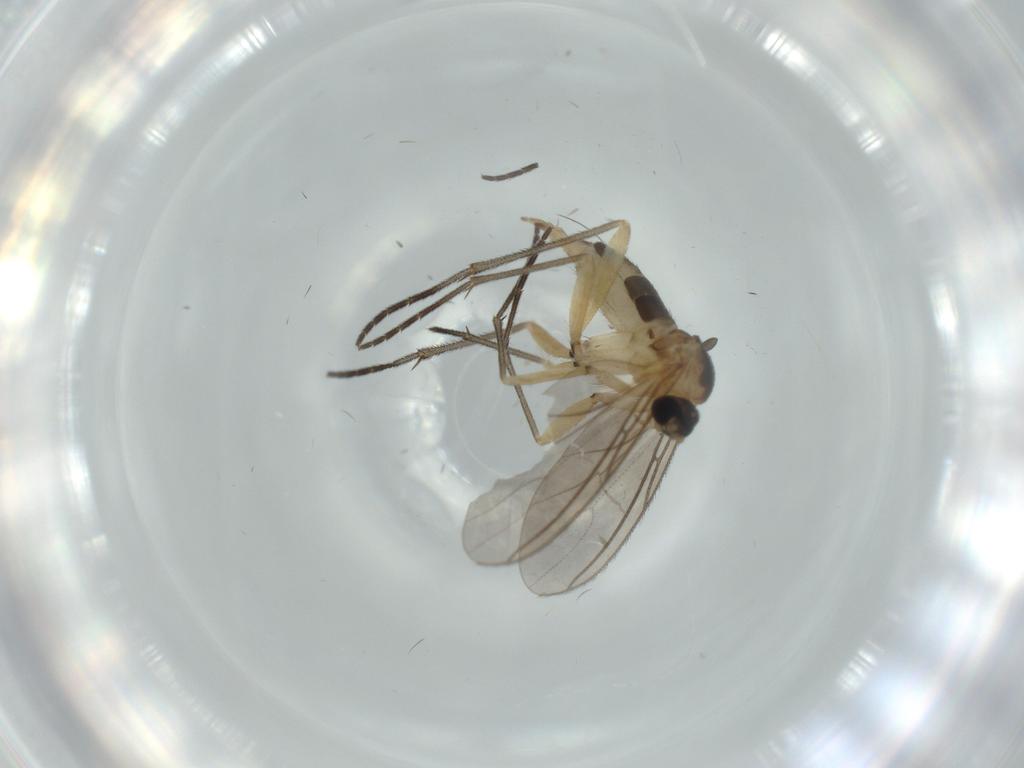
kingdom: Animalia
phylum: Arthropoda
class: Insecta
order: Diptera
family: Sciaridae
